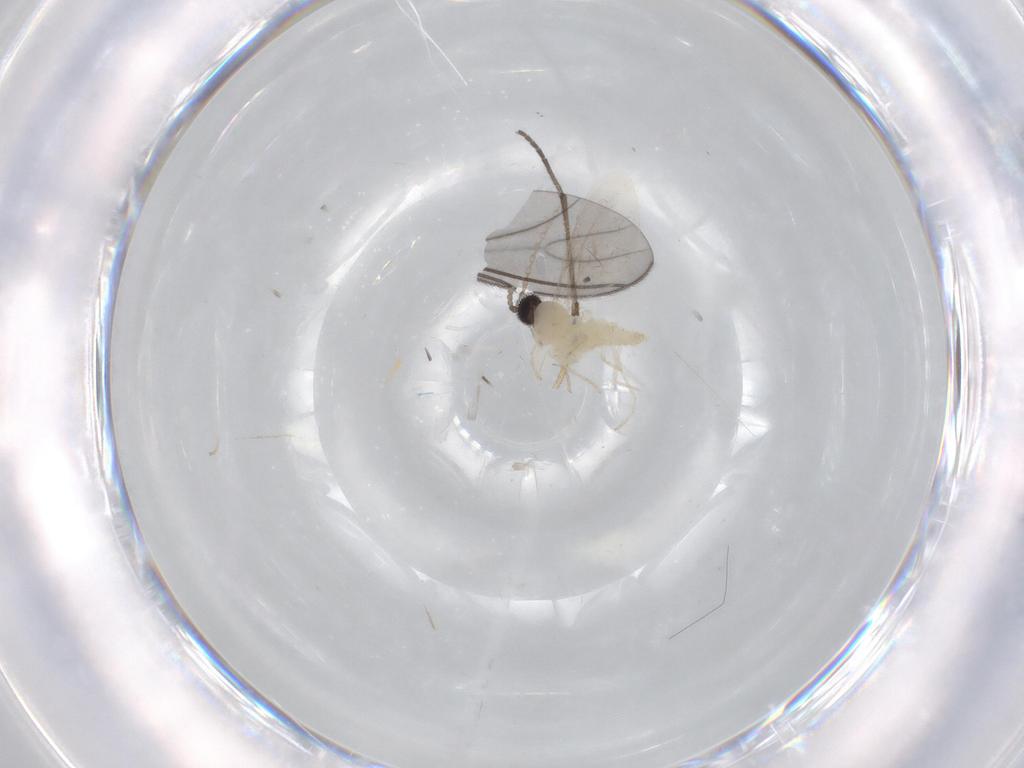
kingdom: Animalia
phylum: Arthropoda
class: Insecta
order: Diptera
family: Cecidomyiidae
